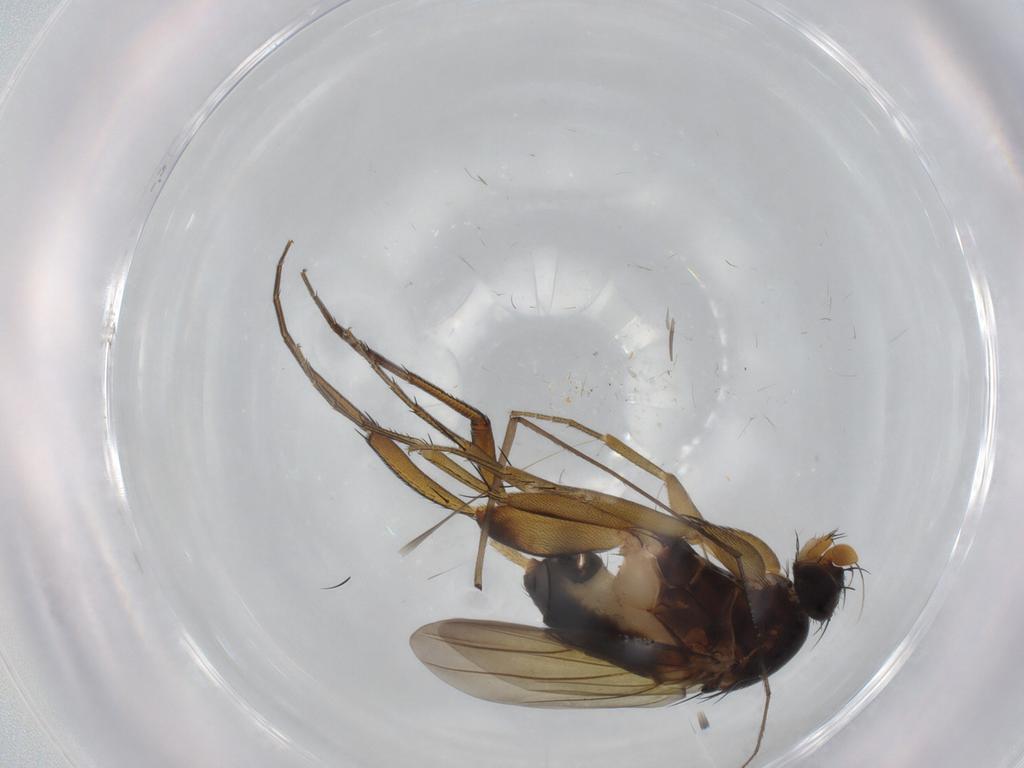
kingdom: Animalia
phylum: Arthropoda
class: Insecta
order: Diptera
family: Phoridae
